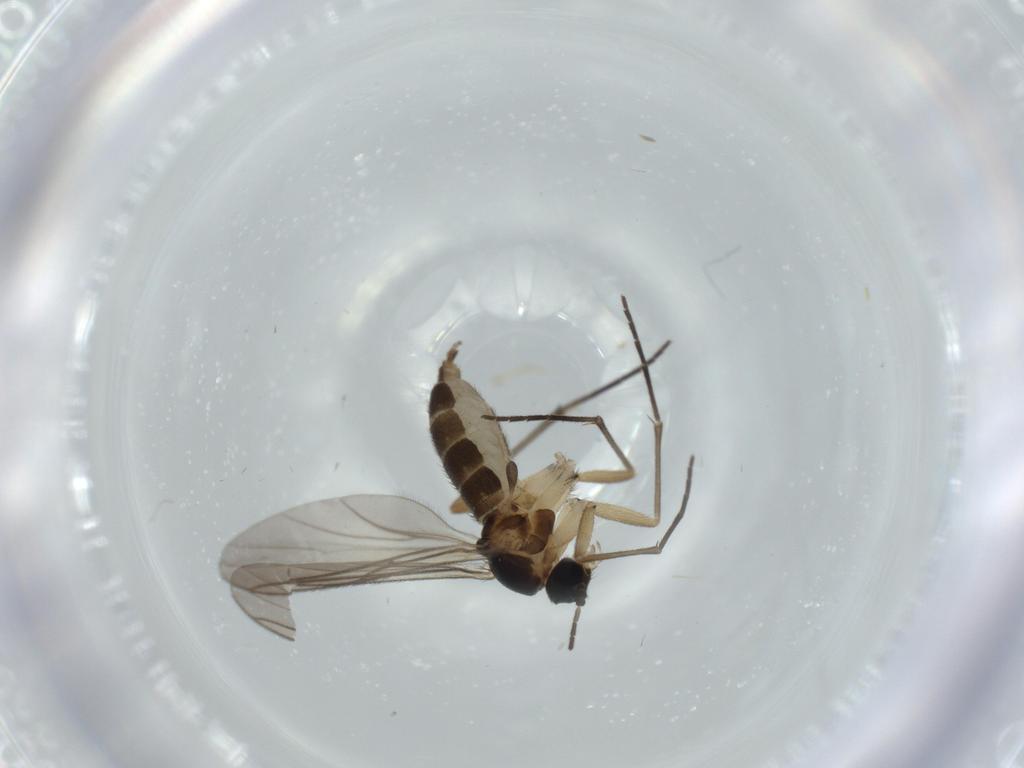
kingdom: Animalia
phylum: Arthropoda
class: Insecta
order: Diptera
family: Sciaridae
